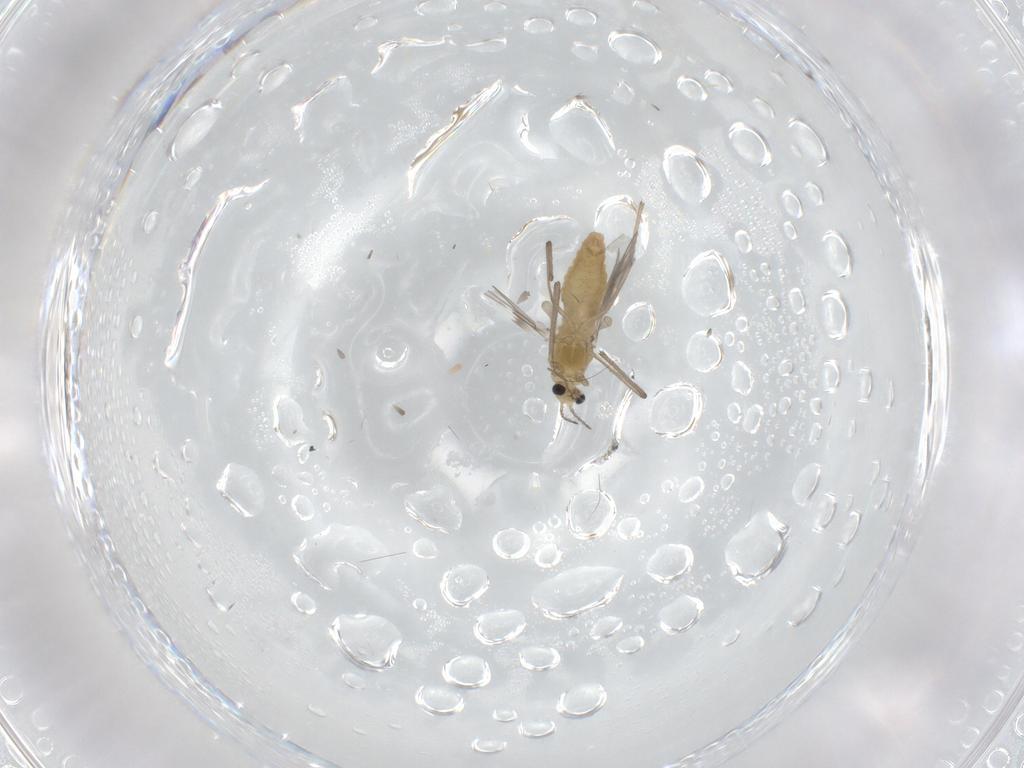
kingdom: Animalia
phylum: Arthropoda
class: Insecta
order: Diptera
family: Chironomidae
